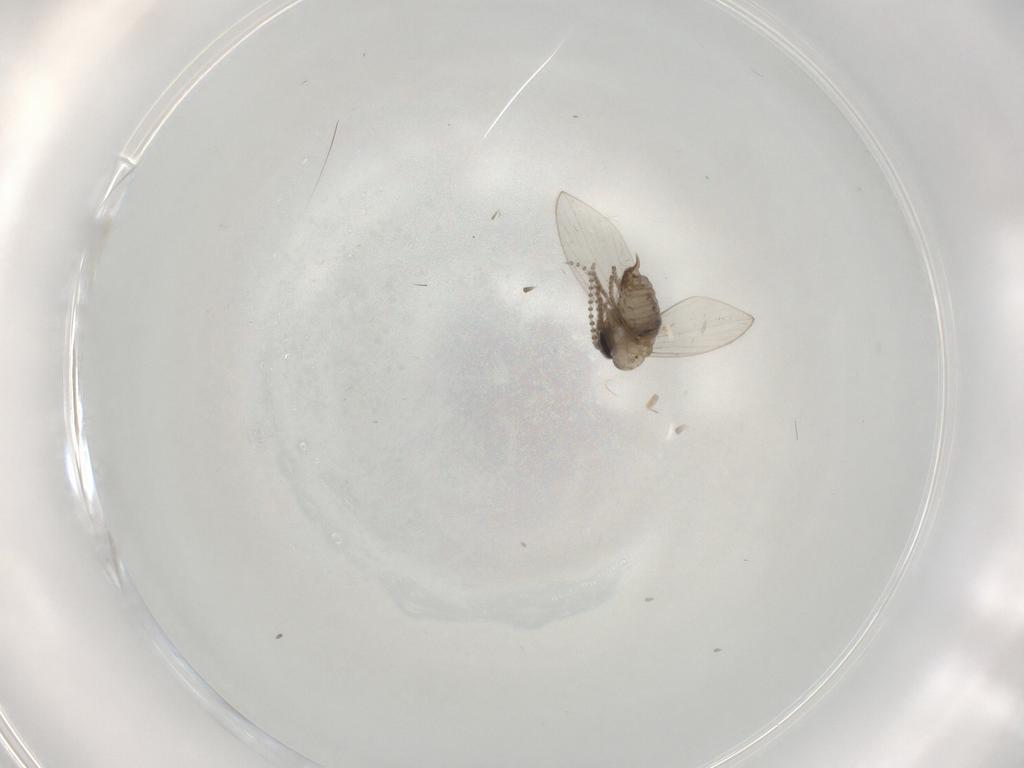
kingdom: Animalia
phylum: Arthropoda
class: Insecta
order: Diptera
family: Psychodidae
